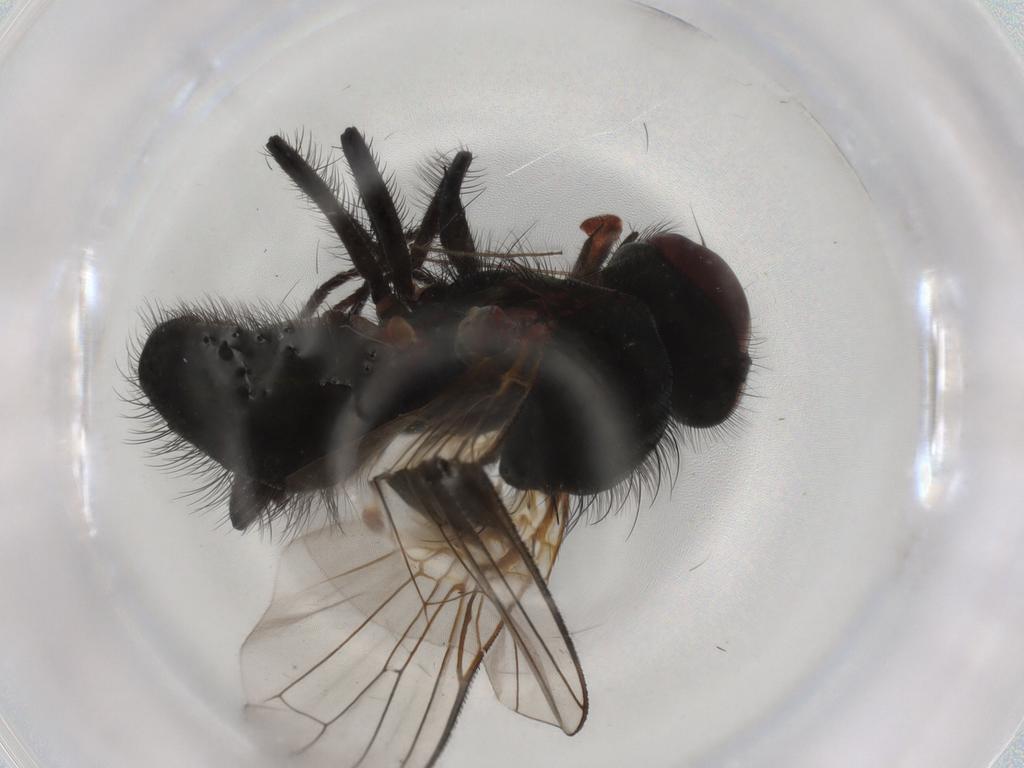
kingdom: Animalia
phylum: Arthropoda
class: Insecta
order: Diptera
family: Anthomyiidae
